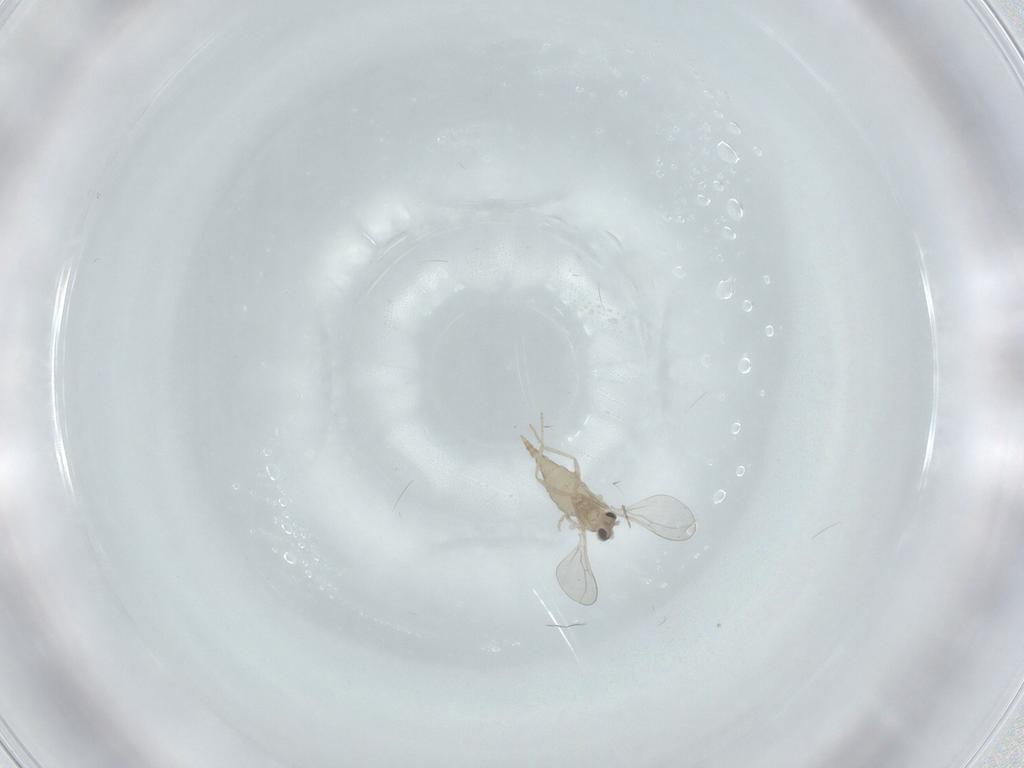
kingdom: Animalia
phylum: Arthropoda
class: Insecta
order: Diptera
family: Cecidomyiidae
